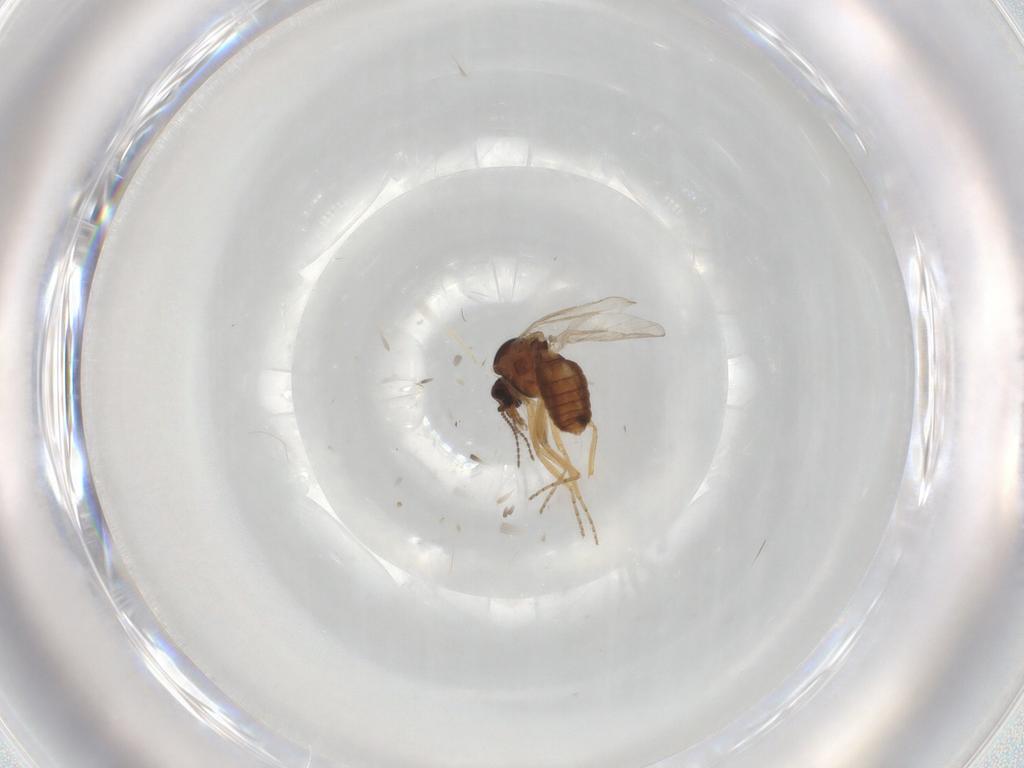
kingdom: Animalia
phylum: Arthropoda
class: Insecta
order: Diptera
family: Ceratopogonidae
